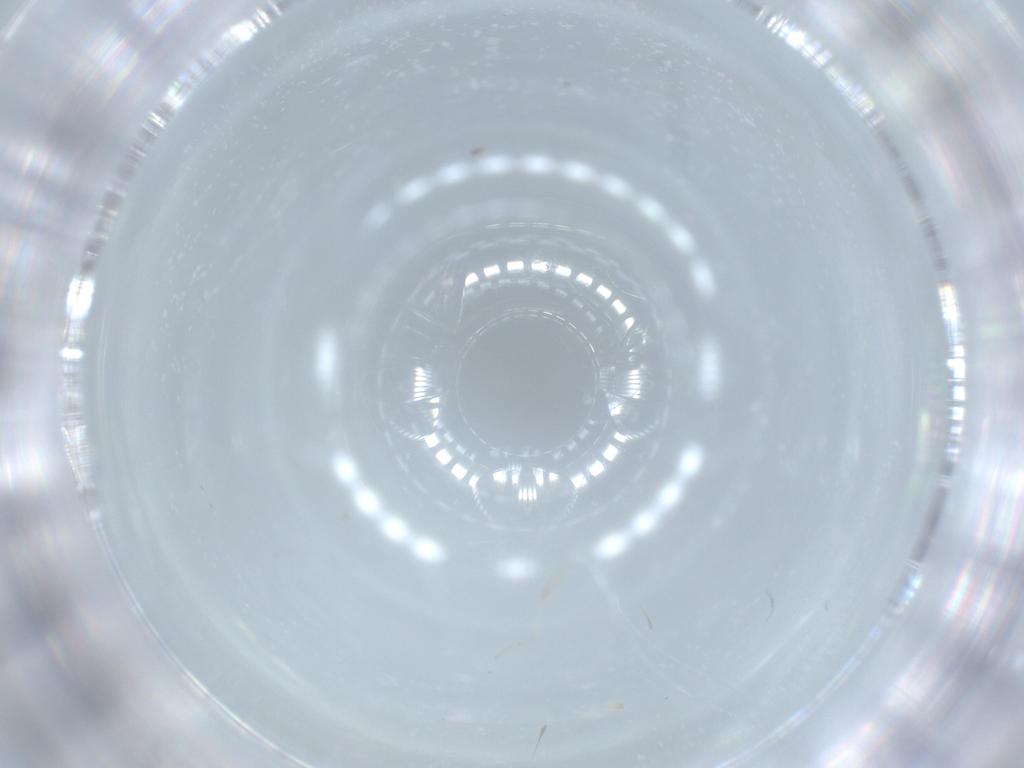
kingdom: Animalia
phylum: Arthropoda
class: Insecta
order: Diptera
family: Cecidomyiidae
